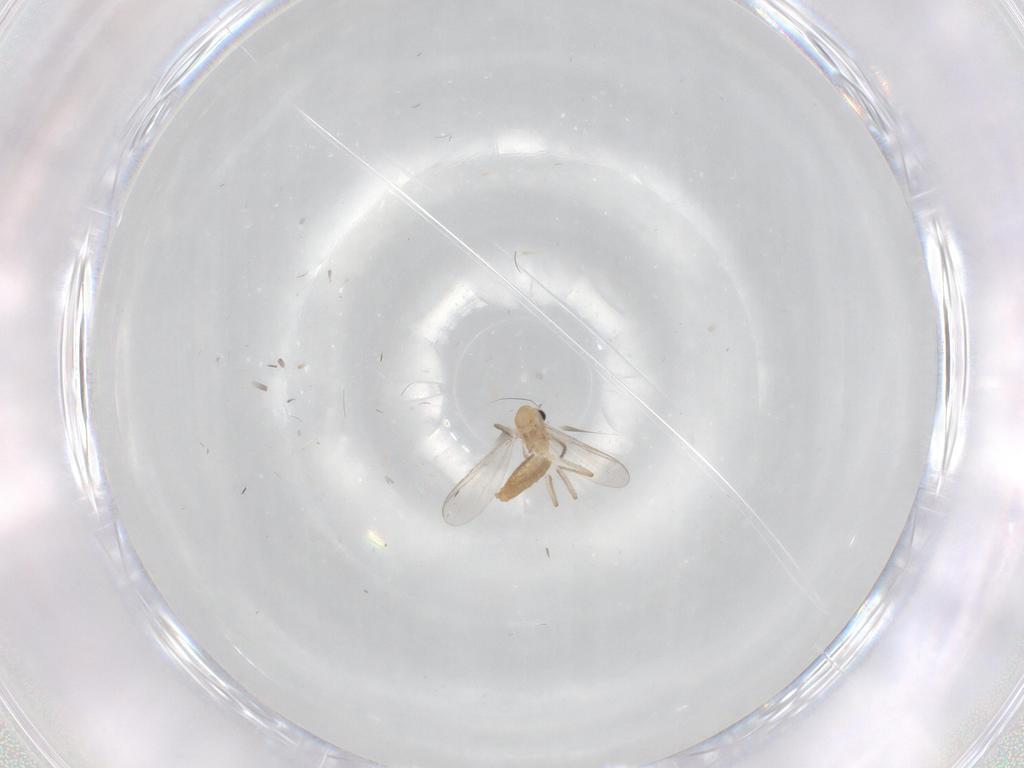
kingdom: Animalia
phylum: Arthropoda
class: Insecta
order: Diptera
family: Chironomidae
